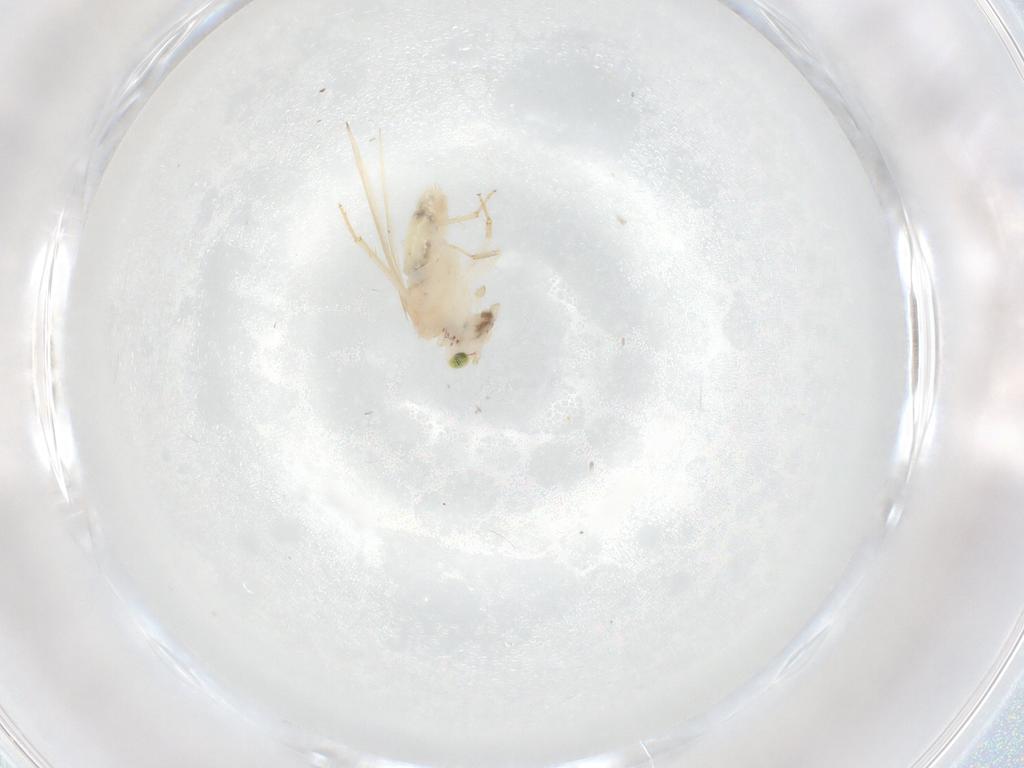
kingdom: Animalia
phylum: Arthropoda
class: Insecta
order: Psocodea
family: Lepidopsocidae
